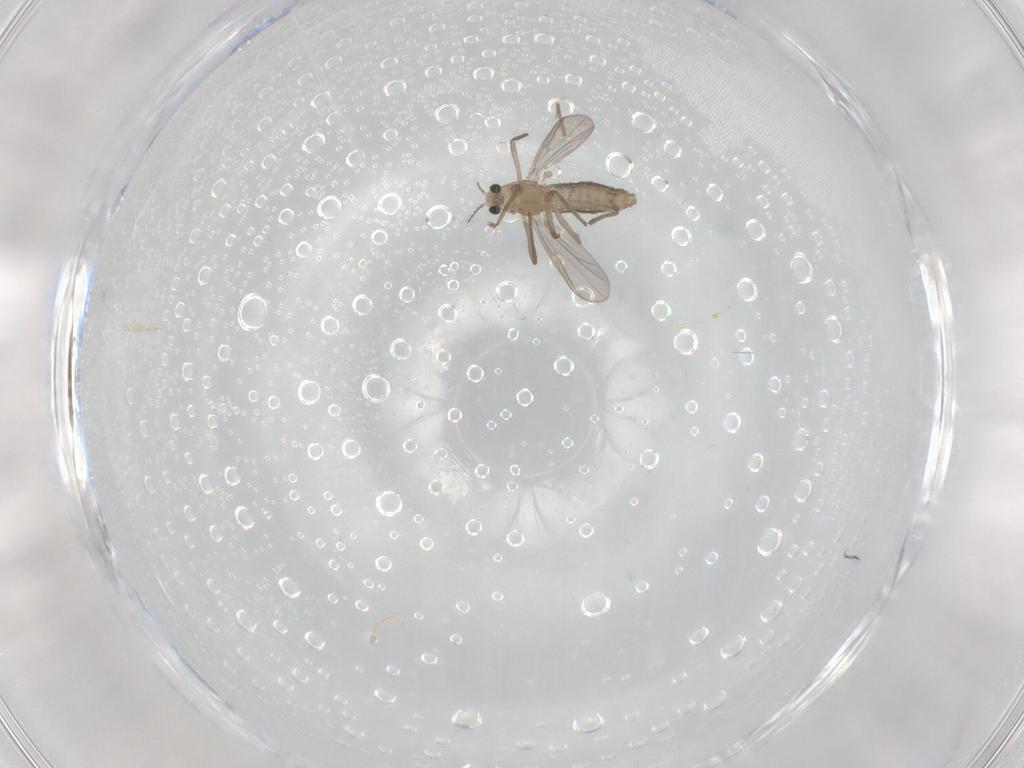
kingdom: Animalia
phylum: Arthropoda
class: Insecta
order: Diptera
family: Chironomidae
